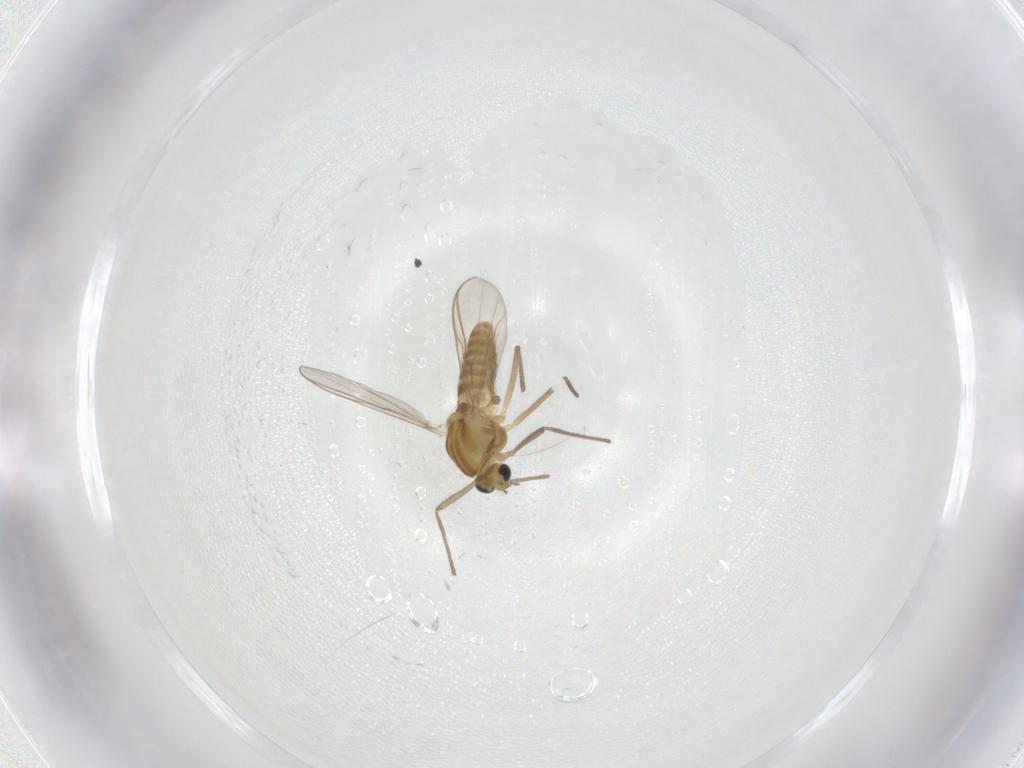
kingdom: Animalia
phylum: Arthropoda
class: Insecta
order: Diptera
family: Chironomidae
